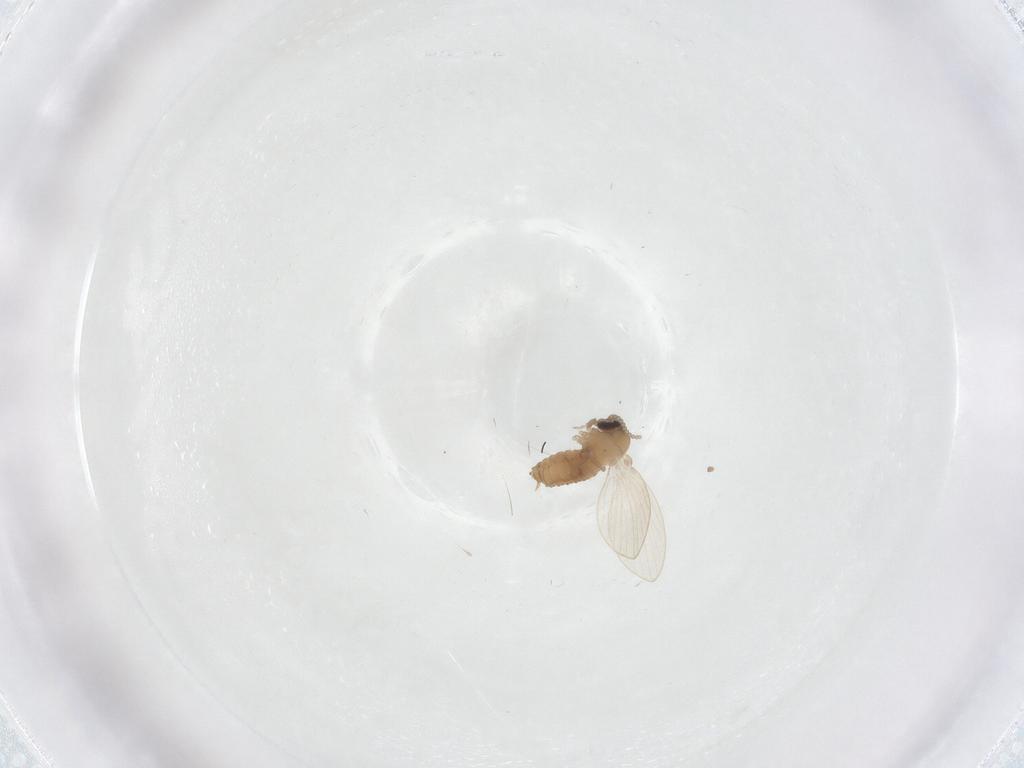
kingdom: Animalia
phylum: Arthropoda
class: Insecta
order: Diptera
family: Psychodidae
